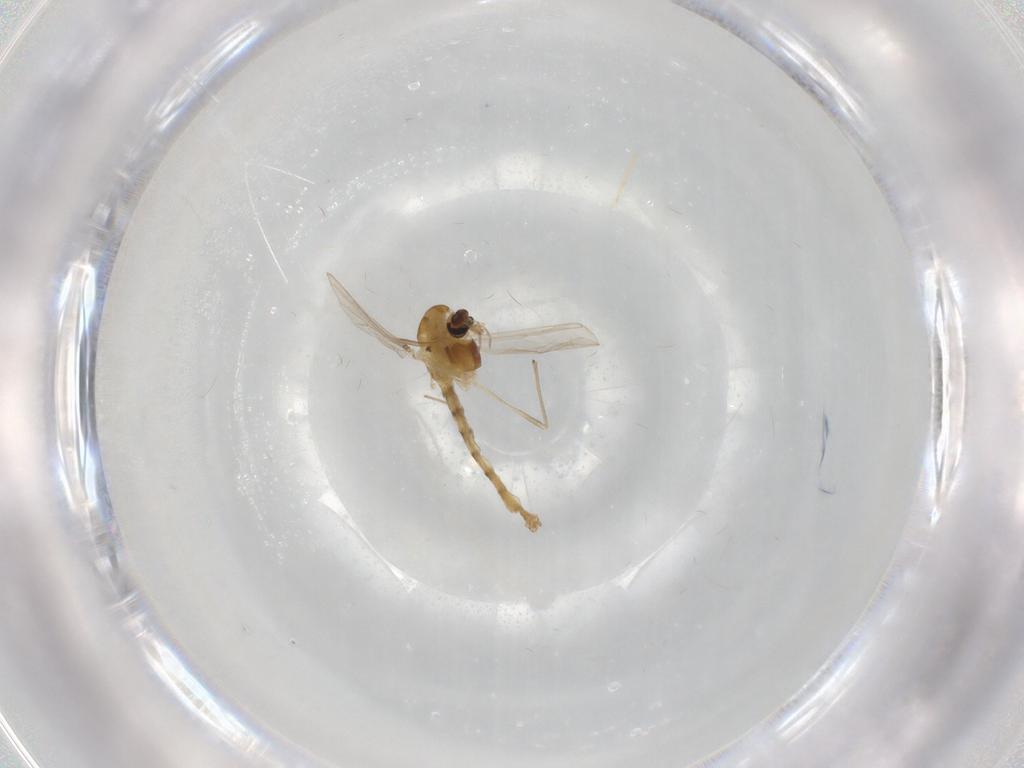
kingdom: Animalia
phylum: Arthropoda
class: Insecta
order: Diptera
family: Chironomidae
